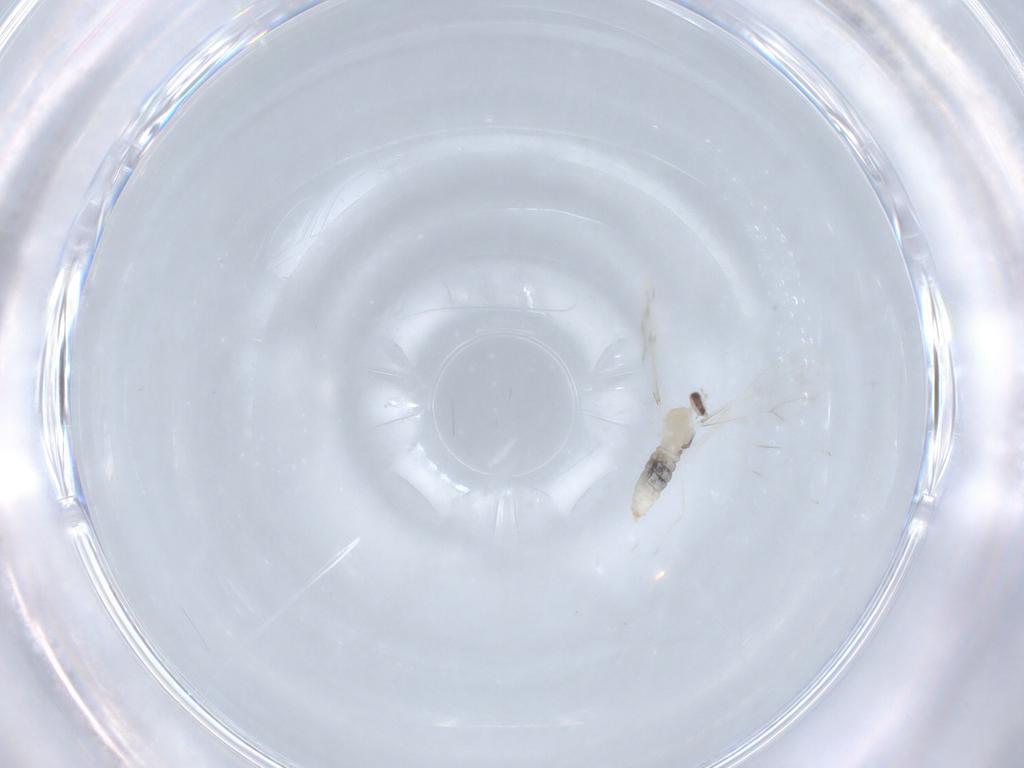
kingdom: Animalia
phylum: Arthropoda
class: Insecta
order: Diptera
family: Cecidomyiidae
